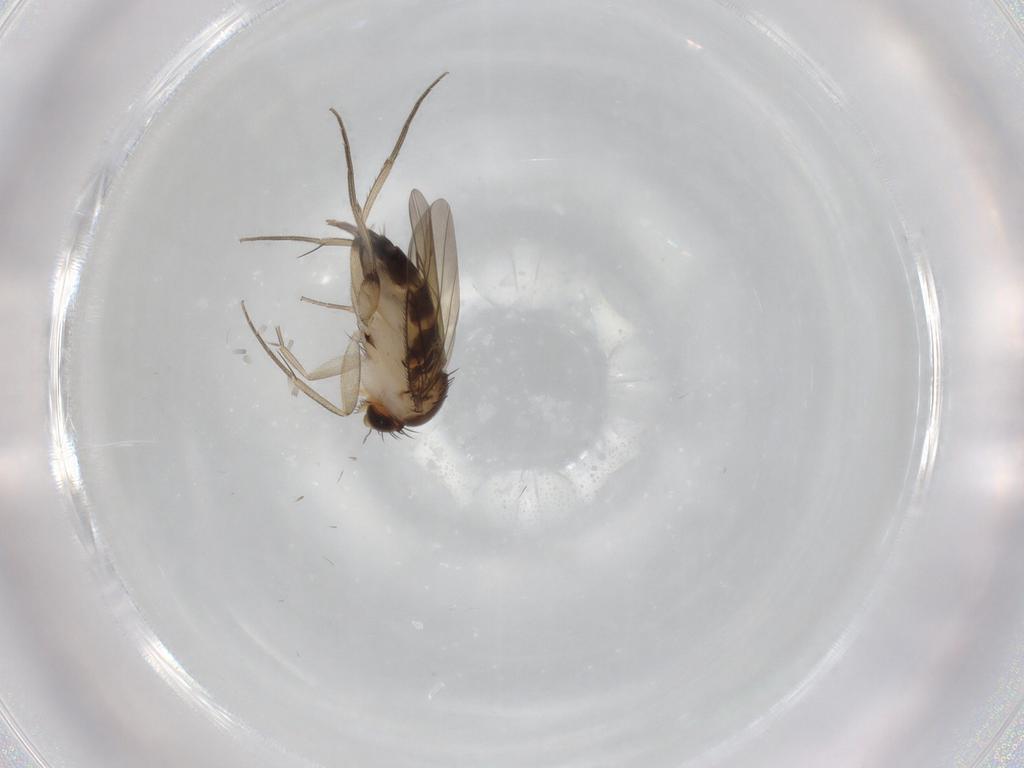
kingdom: Animalia
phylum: Arthropoda
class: Insecta
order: Diptera
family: Phoridae
